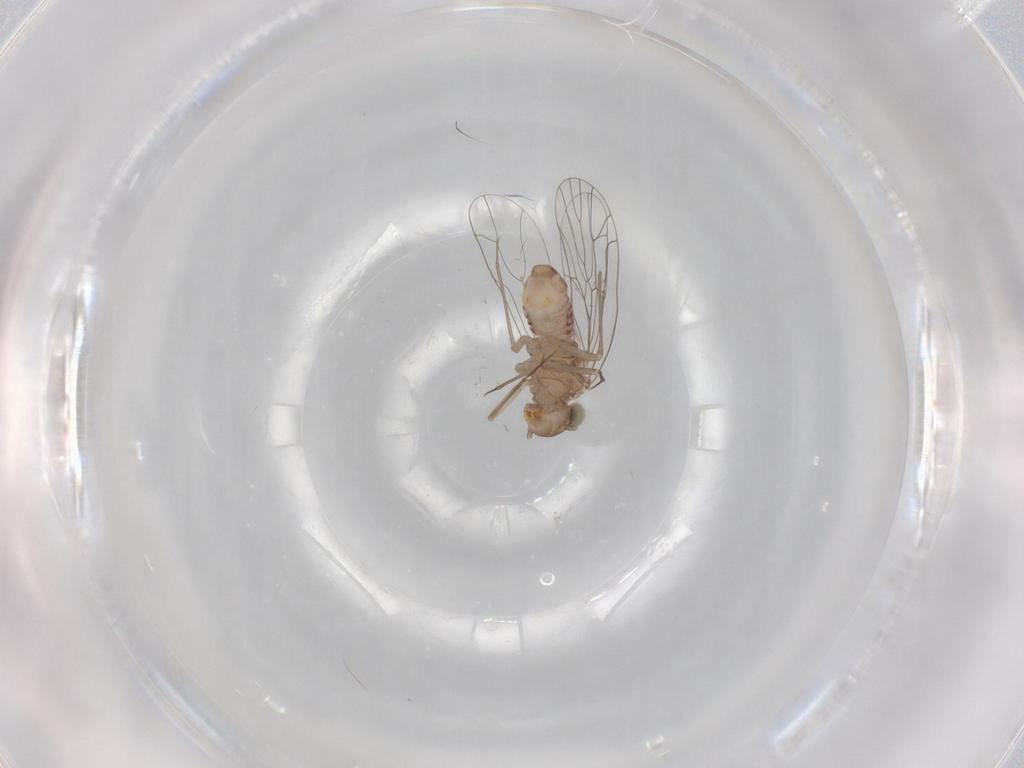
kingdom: Animalia
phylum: Arthropoda
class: Insecta
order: Psocodea
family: Amphientomidae
